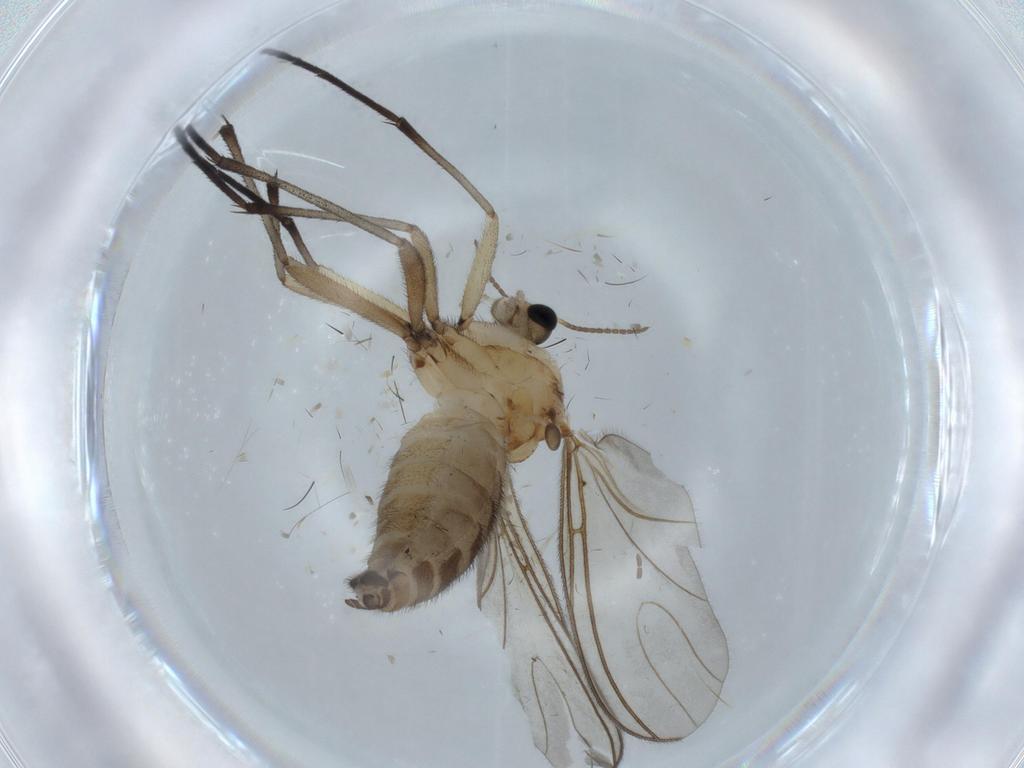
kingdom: Animalia
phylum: Arthropoda
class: Insecta
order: Diptera
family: Sciaridae
